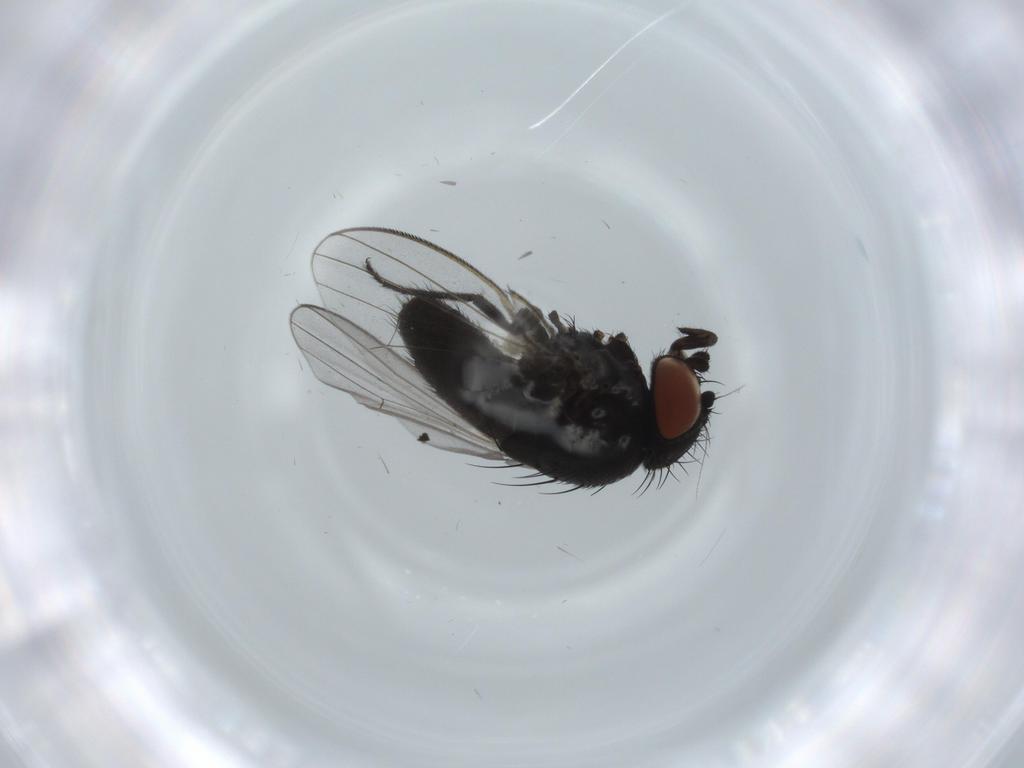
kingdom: Animalia
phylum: Arthropoda
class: Insecta
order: Diptera
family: Milichiidae
